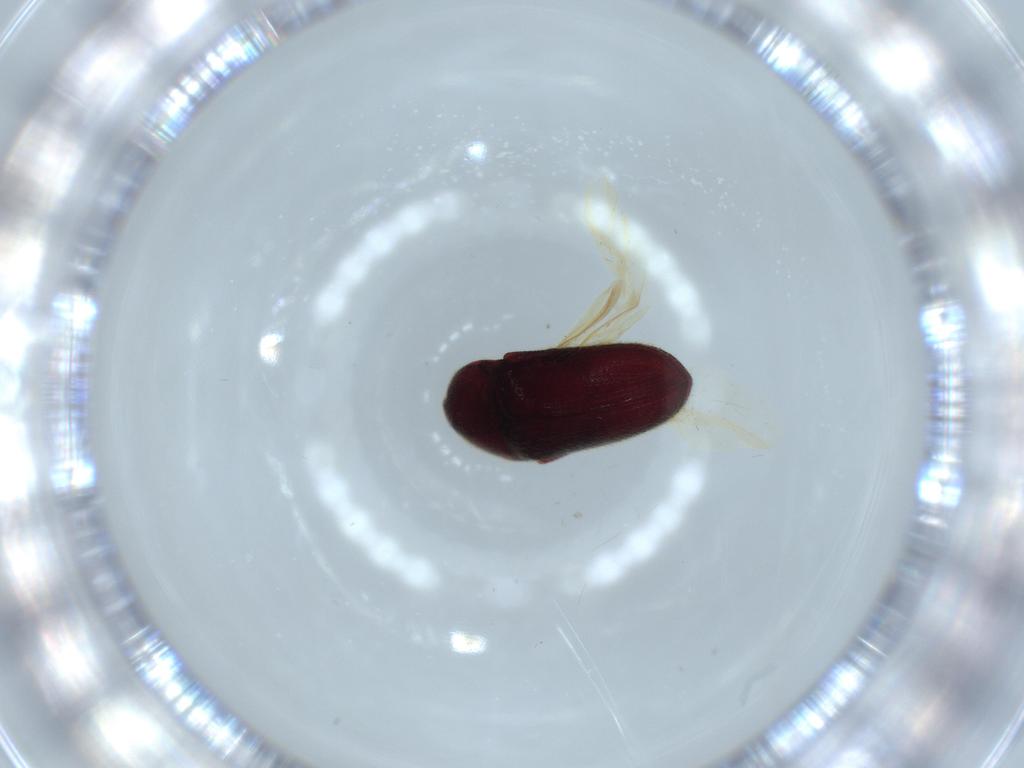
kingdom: Animalia
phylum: Arthropoda
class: Insecta
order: Coleoptera
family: Throscidae
